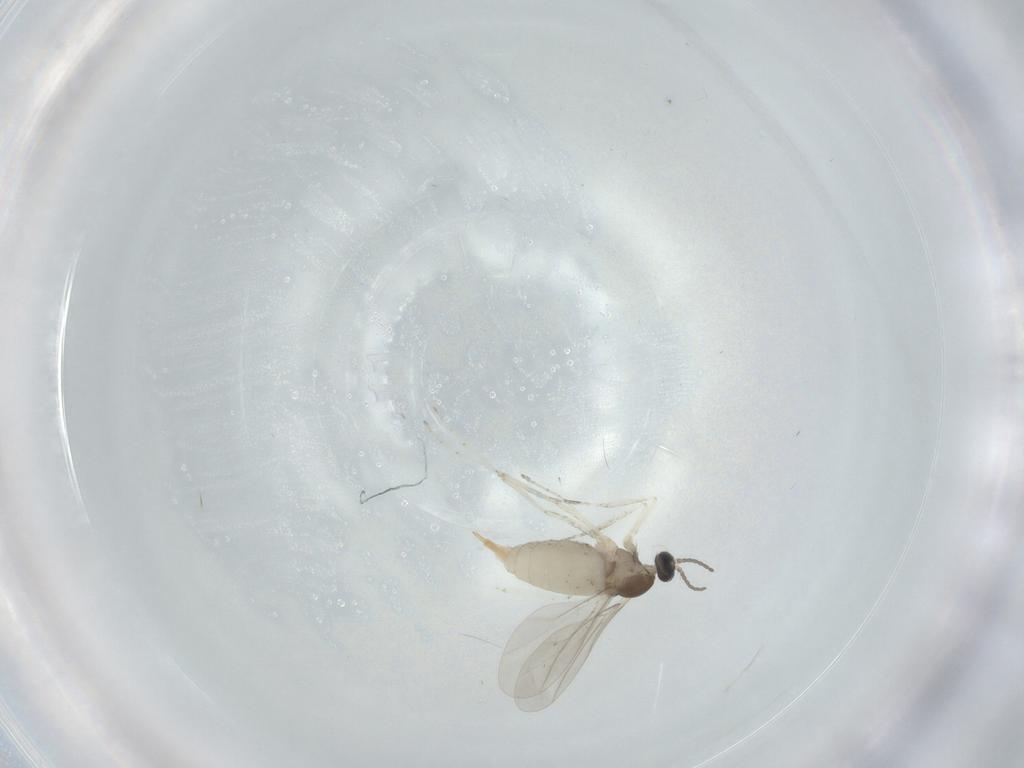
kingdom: Animalia
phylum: Arthropoda
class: Insecta
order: Diptera
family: Cecidomyiidae
